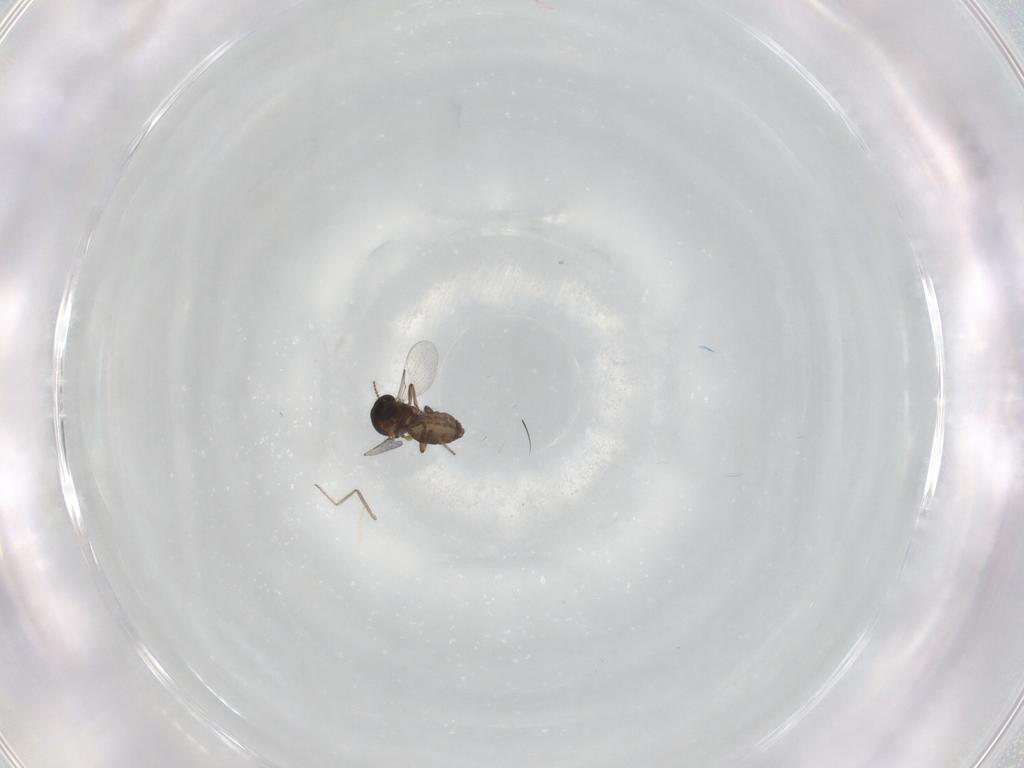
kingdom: Animalia
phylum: Arthropoda
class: Insecta
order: Diptera
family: Ceratopogonidae
